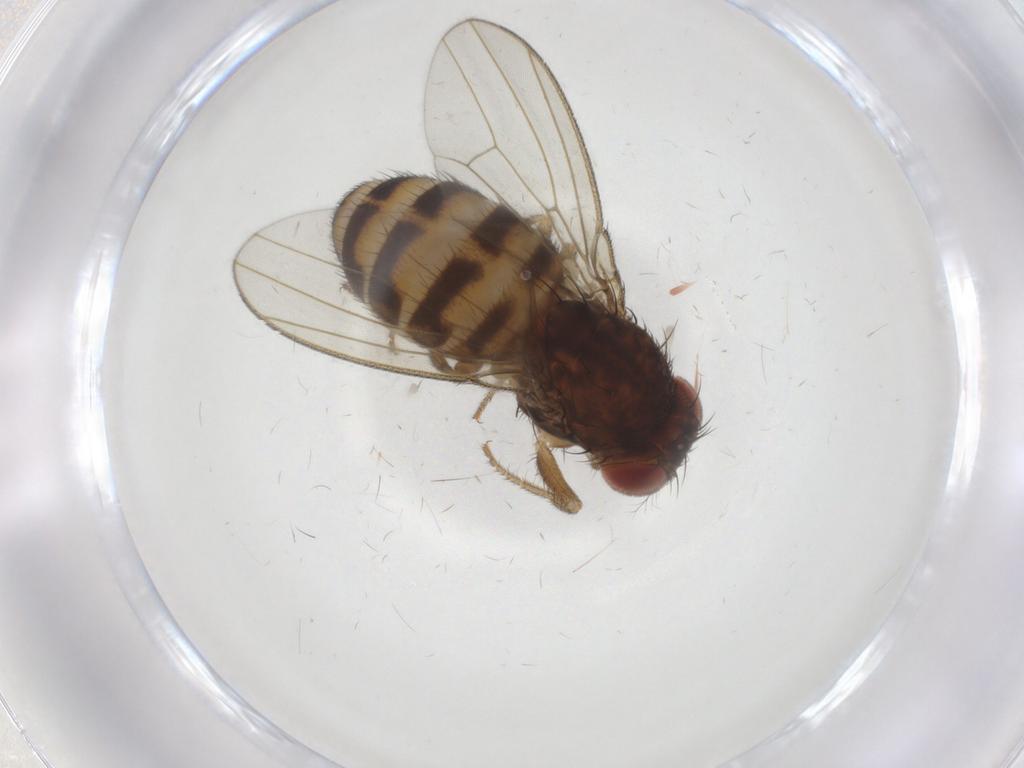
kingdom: Animalia
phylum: Arthropoda
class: Insecta
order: Diptera
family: Drosophilidae
